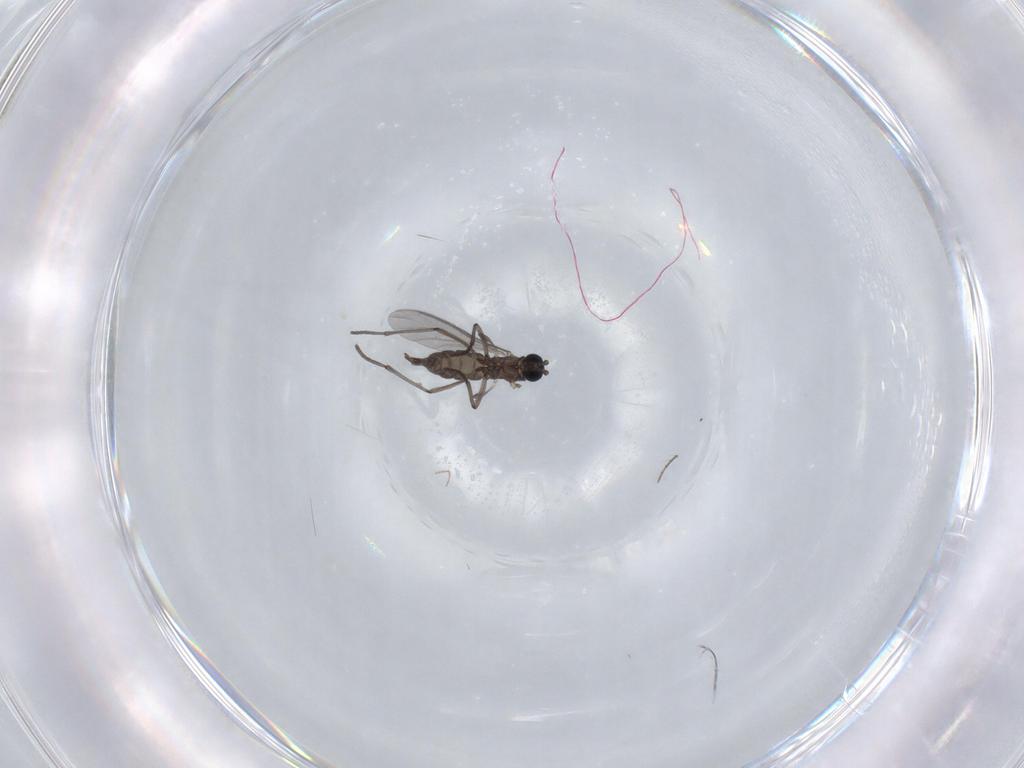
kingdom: Animalia
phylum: Arthropoda
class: Insecta
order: Diptera
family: Sciaridae
